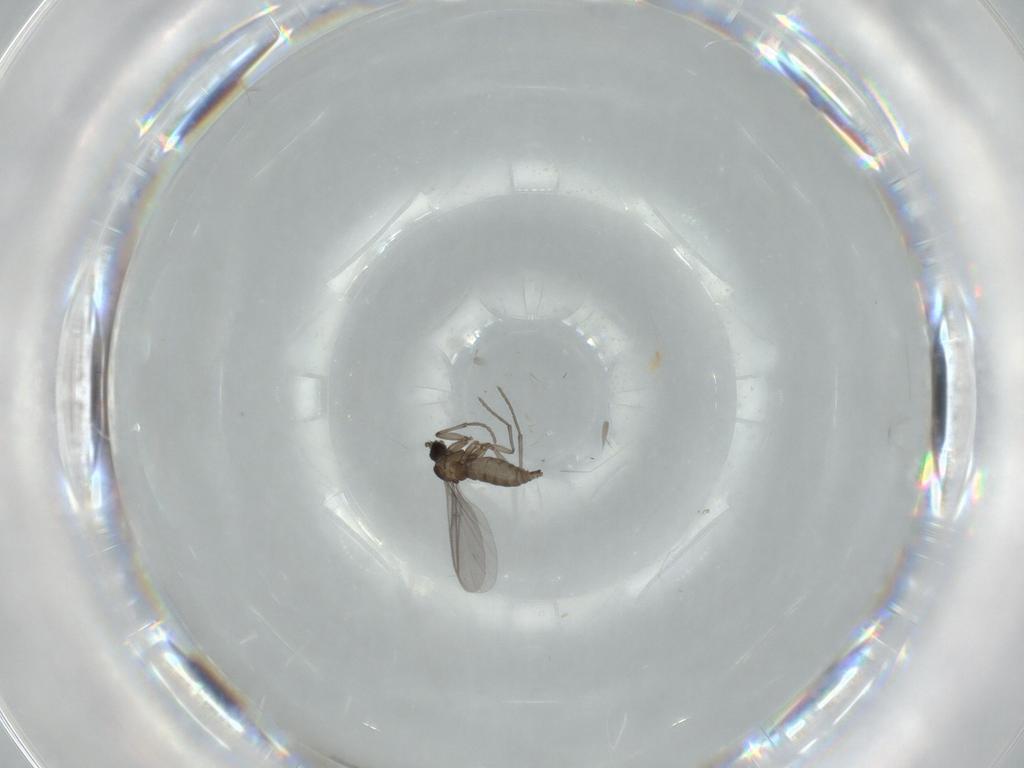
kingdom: Animalia
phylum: Arthropoda
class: Insecta
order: Diptera
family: Sciaridae
